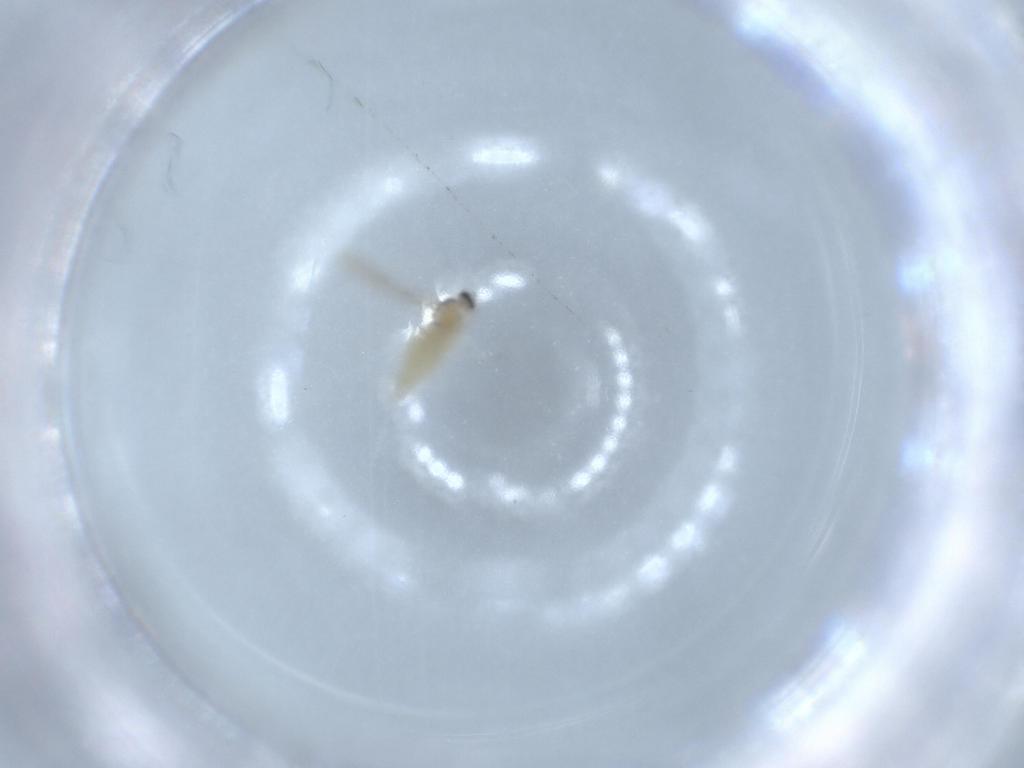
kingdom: Animalia
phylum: Arthropoda
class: Insecta
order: Diptera
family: Cecidomyiidae
